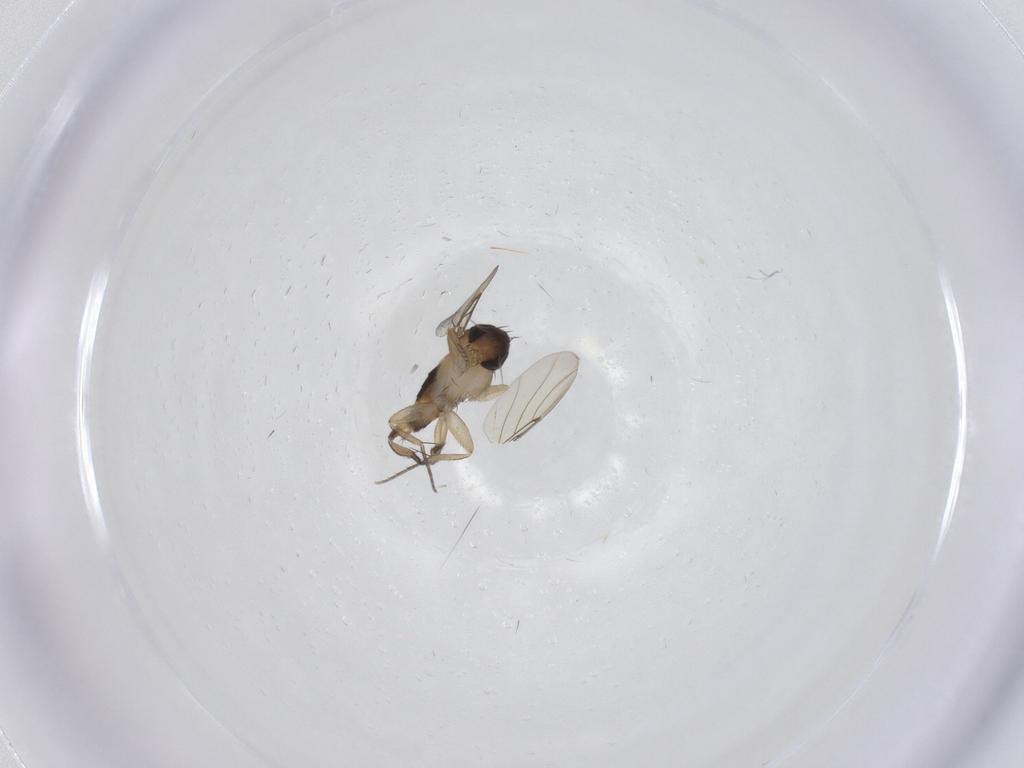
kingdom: Animalia
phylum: Arthropoda
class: Insecta
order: Diptera
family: Phoridae
